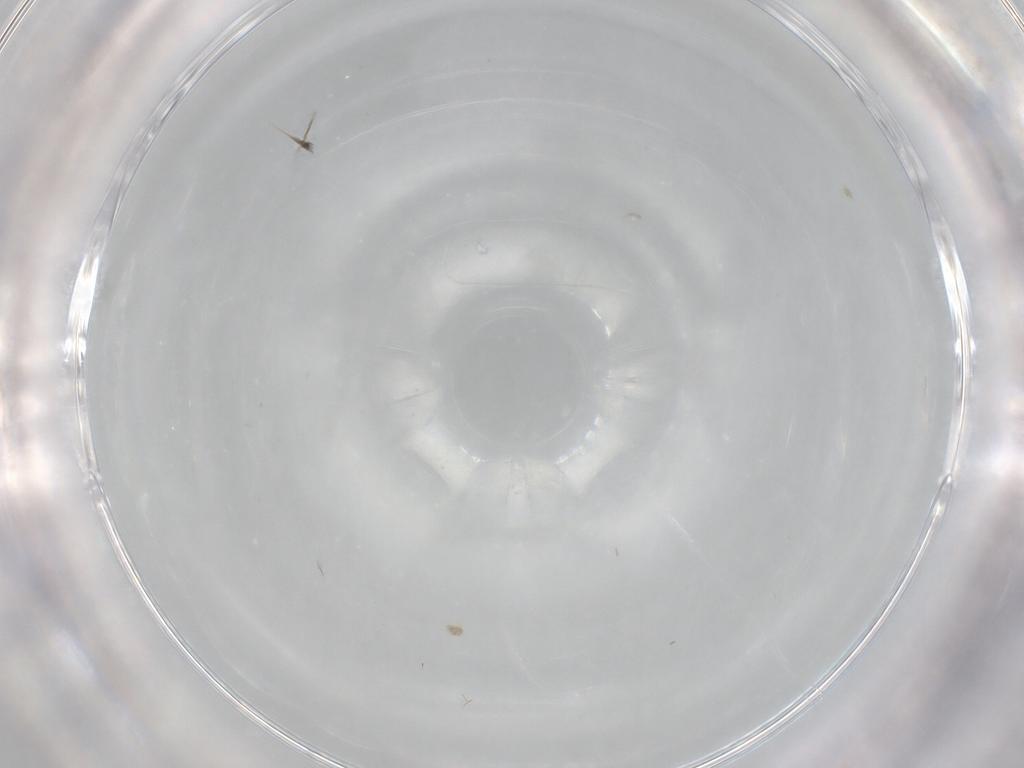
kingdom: Animalia
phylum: Arthropoda
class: Collembola
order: Entomobryomorpha
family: Entomobryidae
